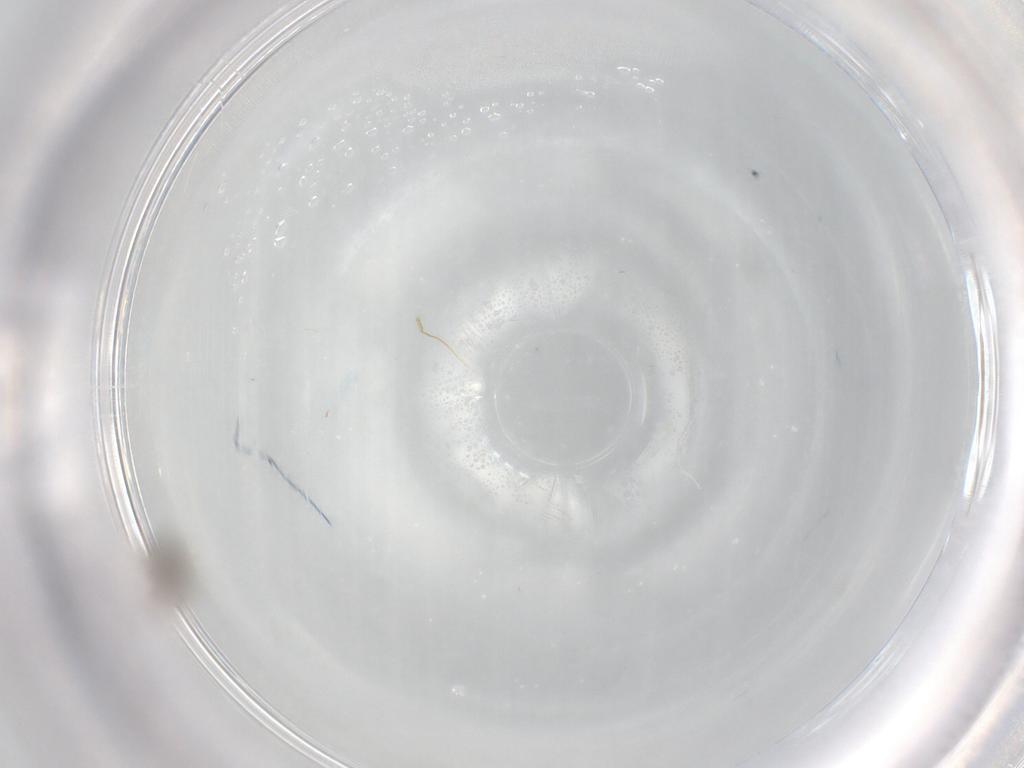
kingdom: Animalia
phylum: Arthropoda
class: Insecta
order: Diptera
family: Ceratopogonidae
